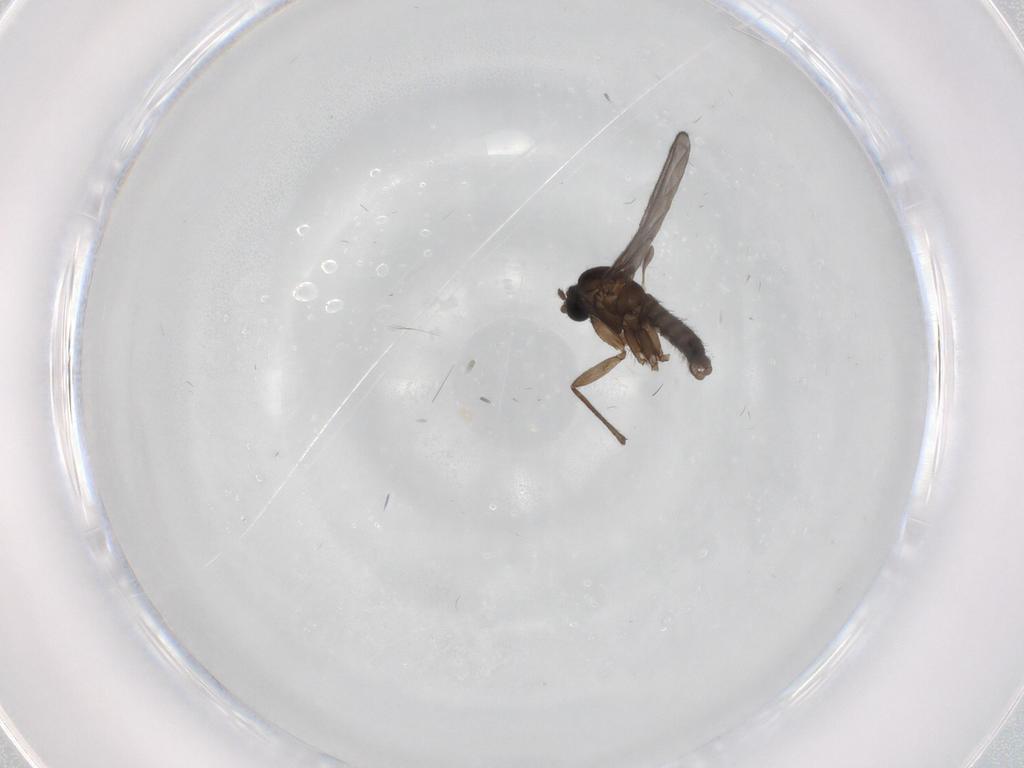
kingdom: Animalia
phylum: Arthropoda
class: Insecta
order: Diptera
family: Sciaridae
